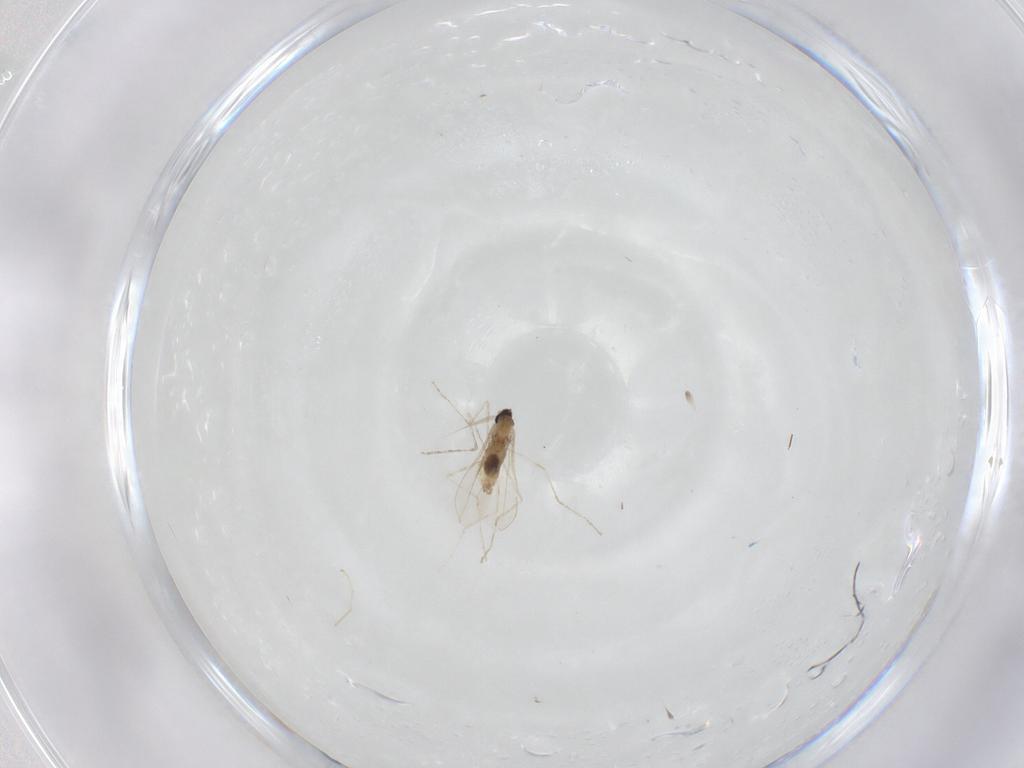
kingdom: Animalia
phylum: Arthropoda
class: Insecta
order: Diptera
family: Cecidomyiidae
